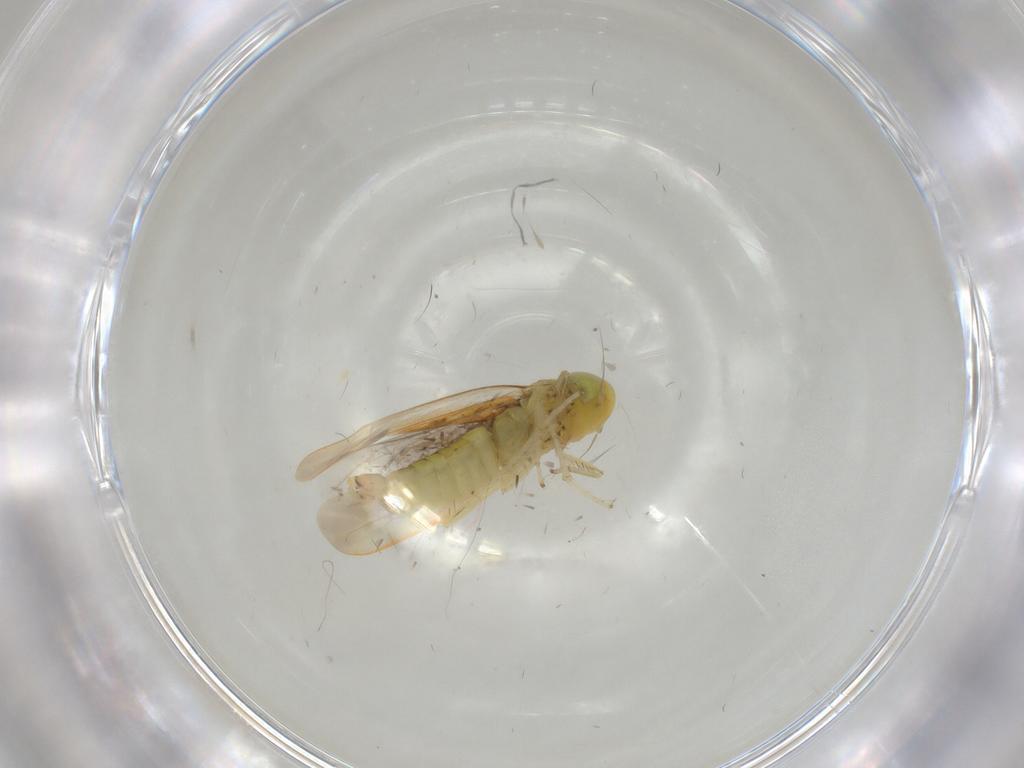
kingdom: Animalia
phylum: Arthropoda
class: Insecta
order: Hemiptera
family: Cicadellidae
